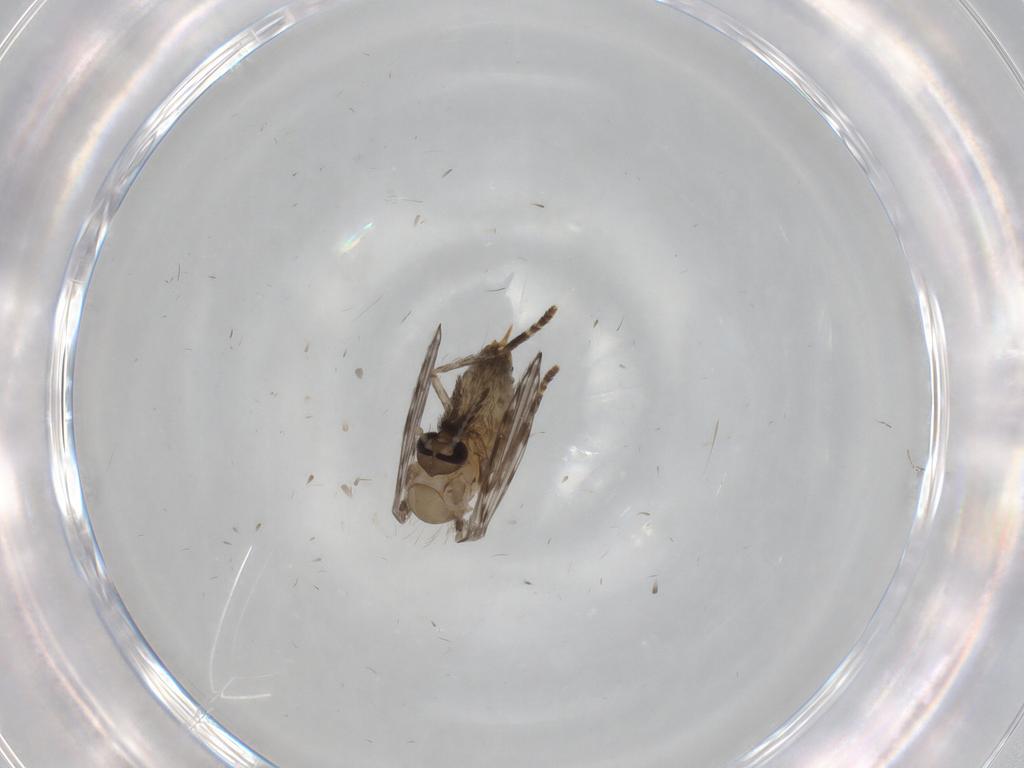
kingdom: Animalia
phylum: Arthropoda
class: Insecta
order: Diptera
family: Psychodidae
